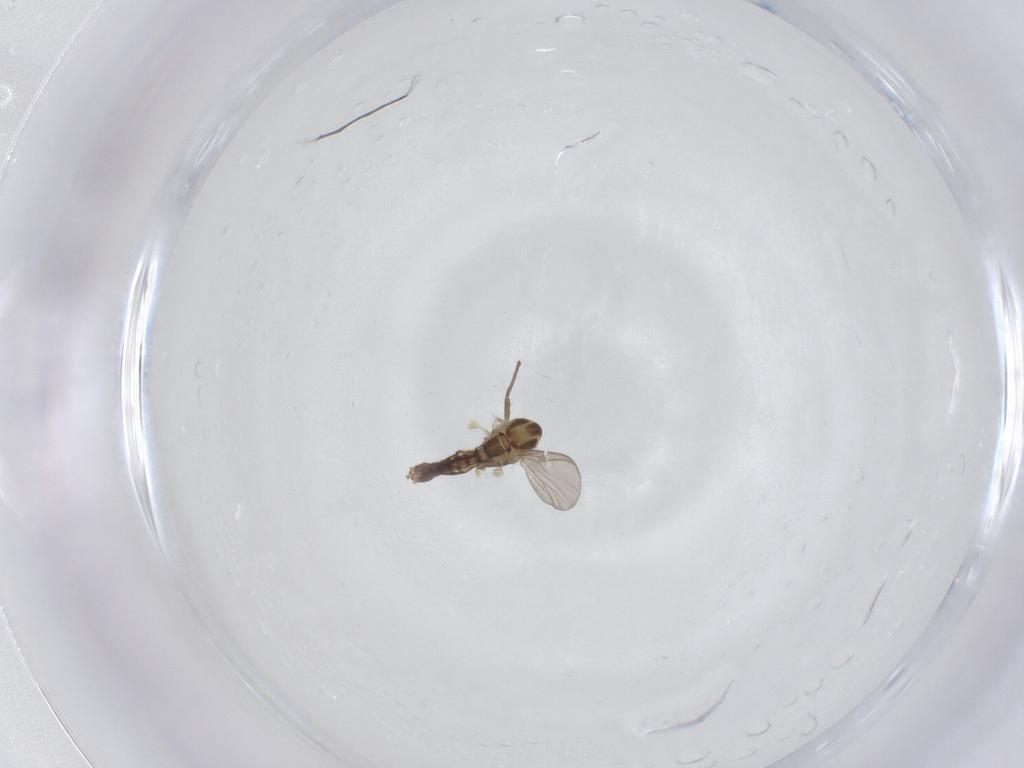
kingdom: Animalia
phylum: Arthropoda
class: Insecta
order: Diptera
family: Chironomidae
